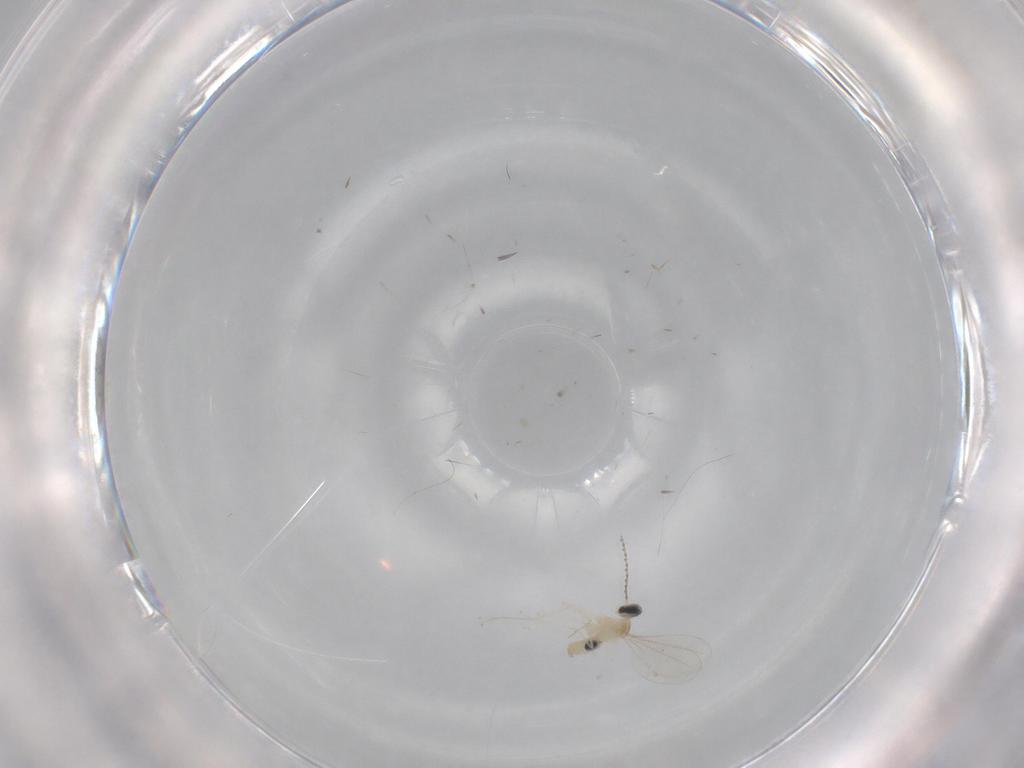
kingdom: Animalia
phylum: Arthropoda
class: Insecta
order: Diptera
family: Cecidomyiidae
